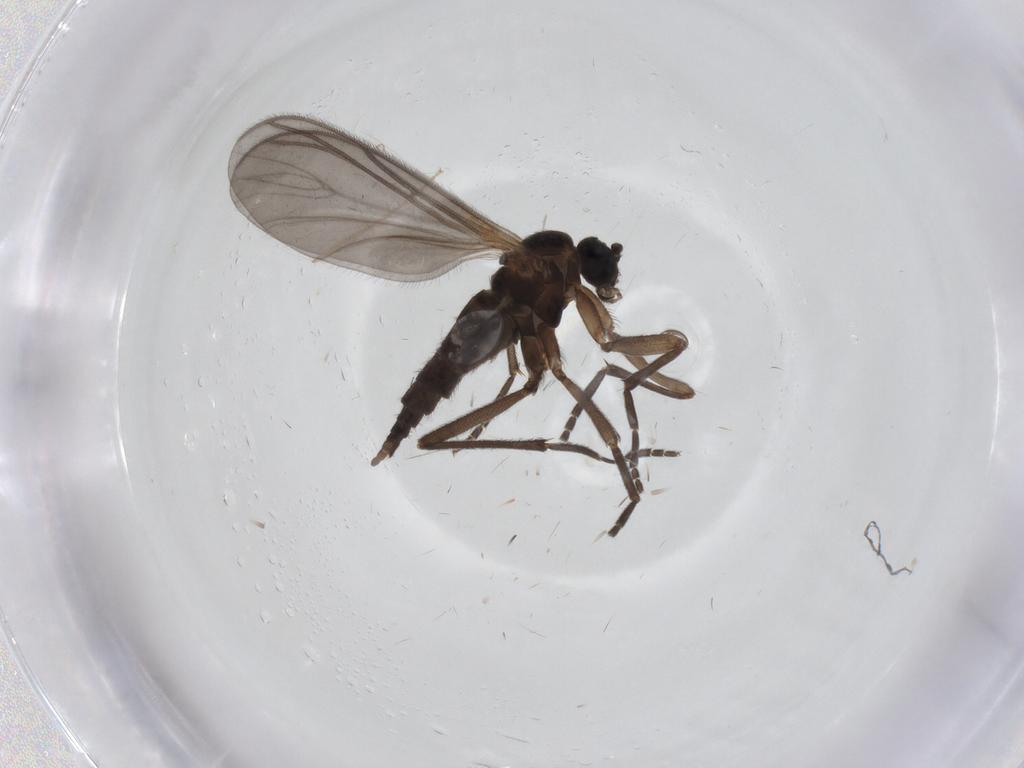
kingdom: Animalia
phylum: Arthropoda
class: Insecta
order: Diptera
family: Sciaridae
